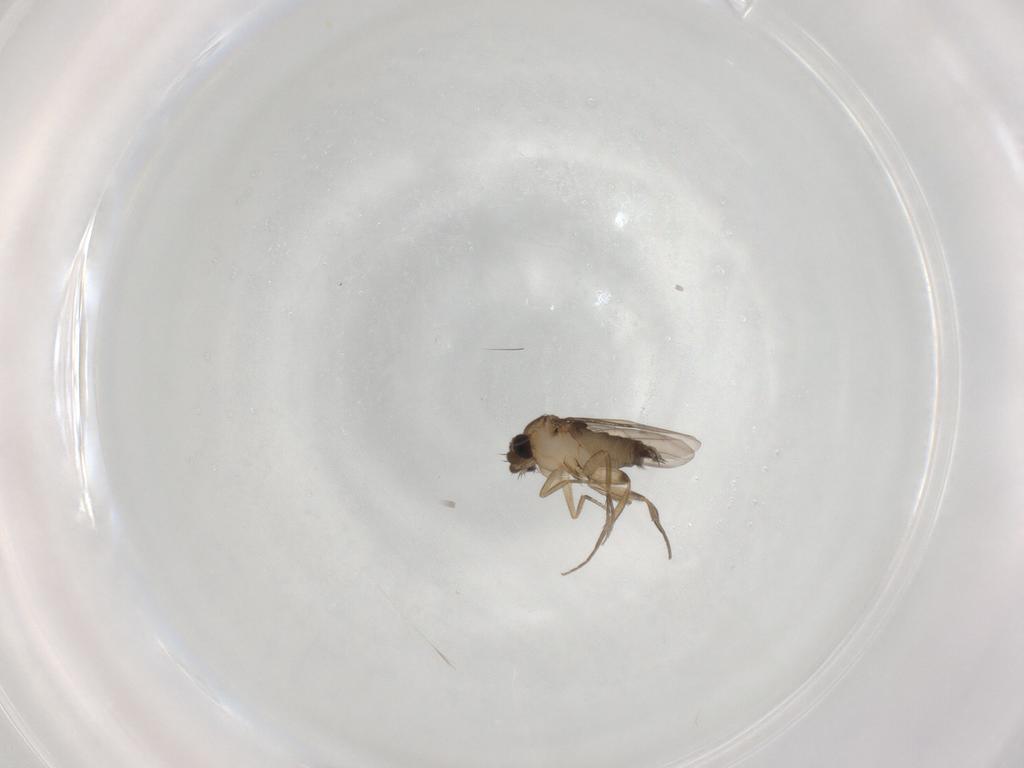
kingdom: Animalia
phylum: Arthropoda
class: Insecta
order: Diptera
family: Phoridae
